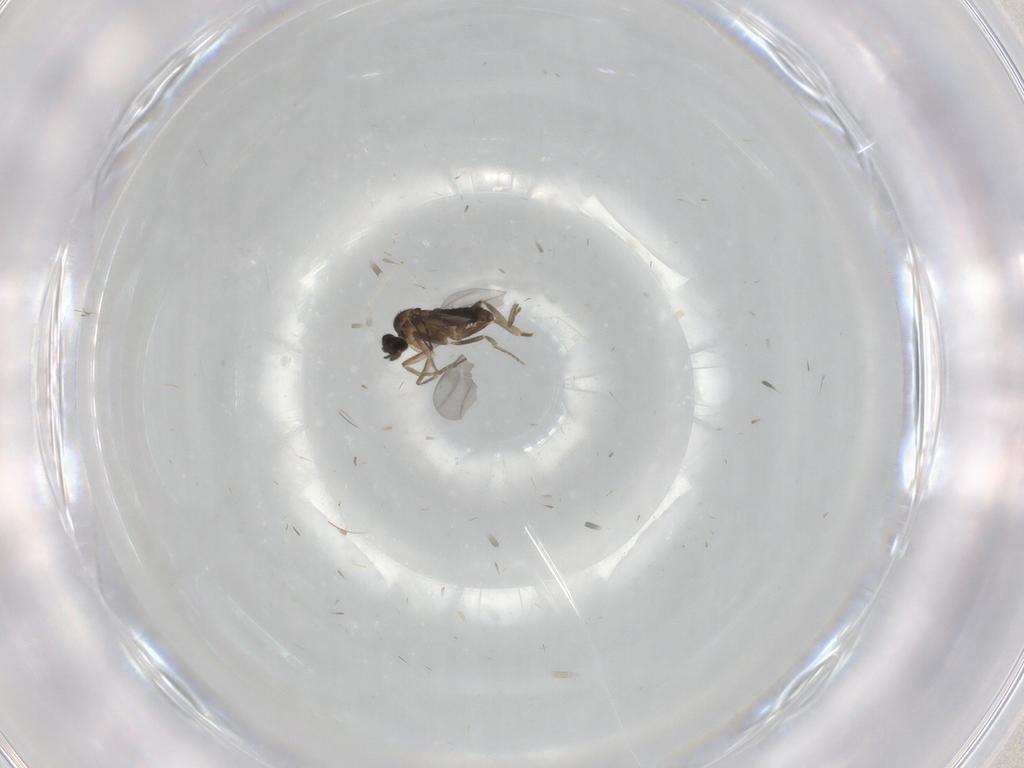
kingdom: Animalia
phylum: Arthropoda
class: Insecta
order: Diptera
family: Cecidomyiidae
